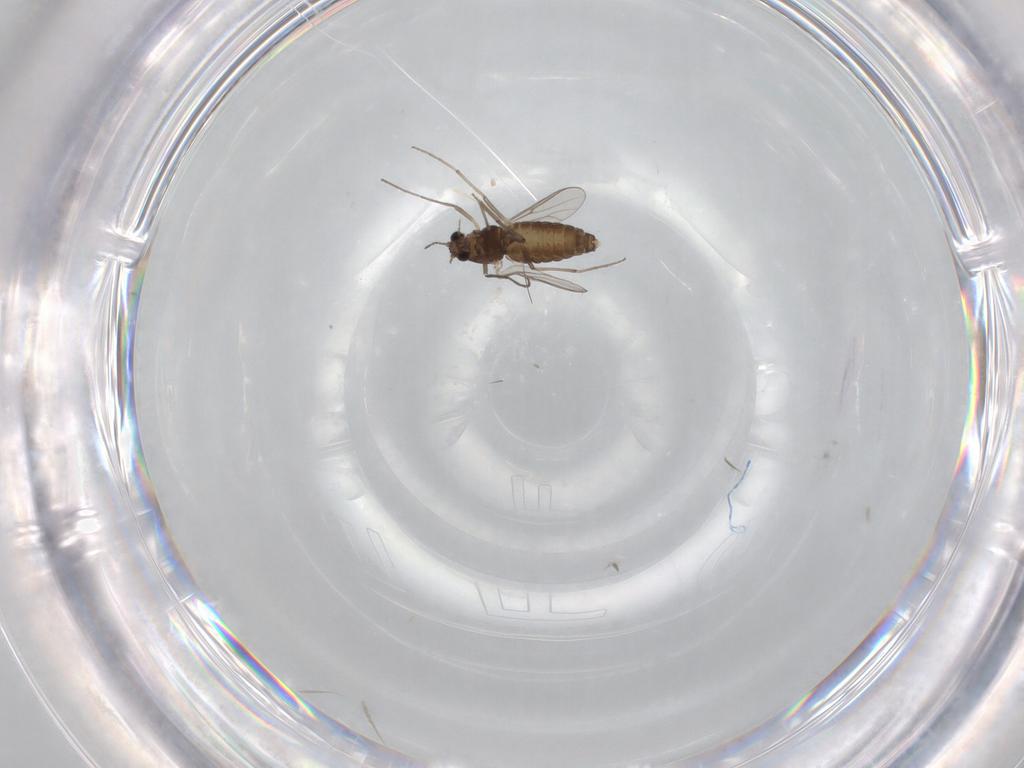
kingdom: Animalia
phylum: Arthropoda
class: Insecta
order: Diptera
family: Chironomidae
